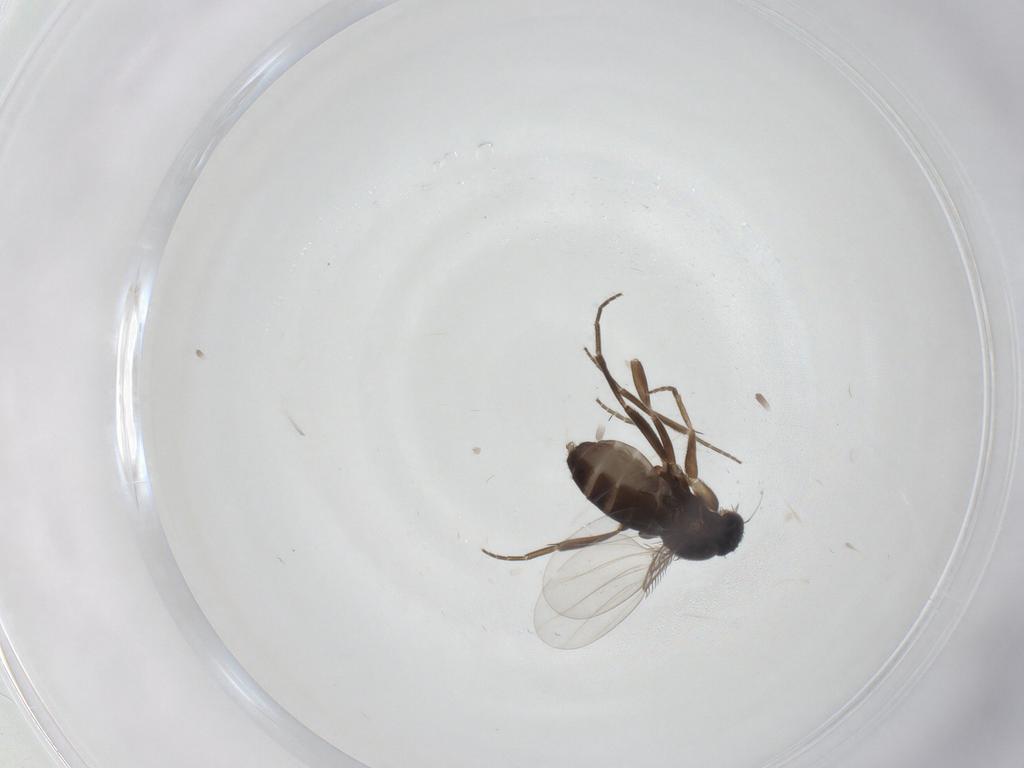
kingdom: Animalia
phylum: Arthropoda
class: Insecta
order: Diptera
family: Phoridae
